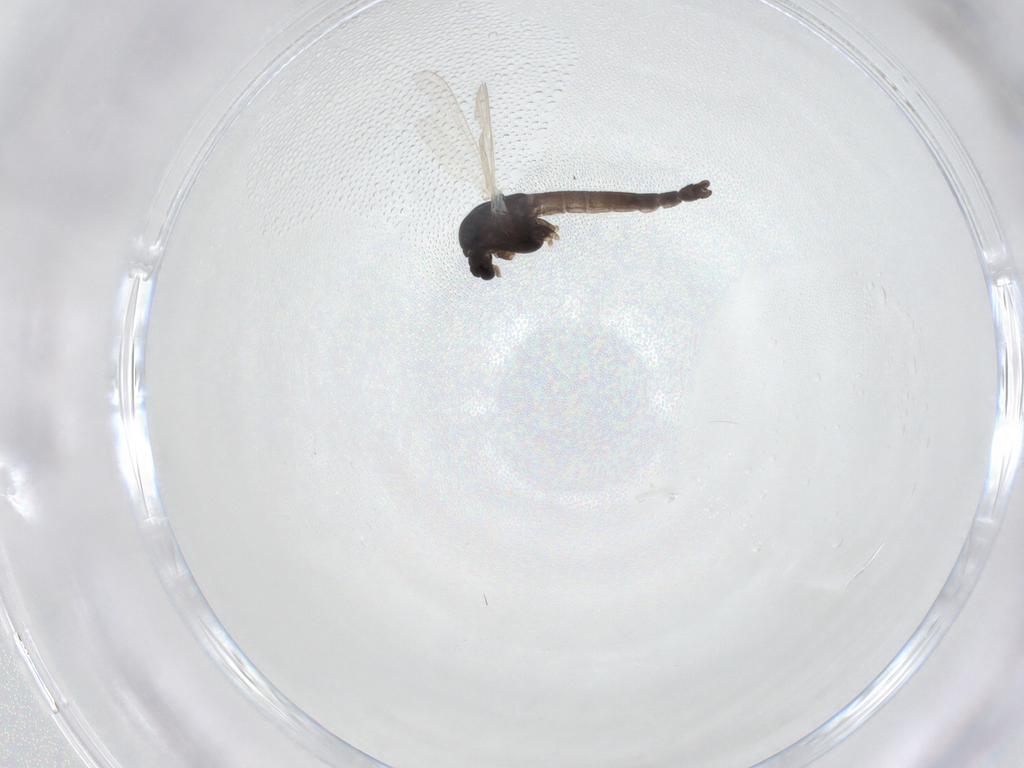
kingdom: Animalia
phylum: Arthropoda
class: Insecta
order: Diptera
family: Chironomidae
